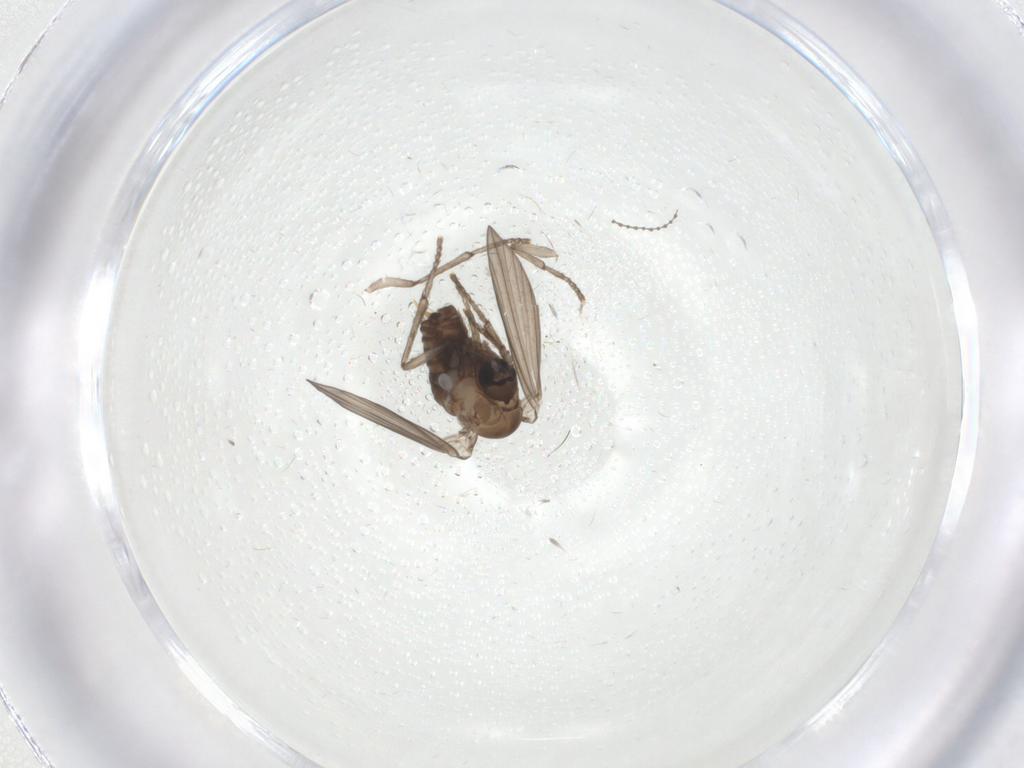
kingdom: Animalia
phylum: Arthropoda
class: Insecta
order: Diptera
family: Psychodidae
